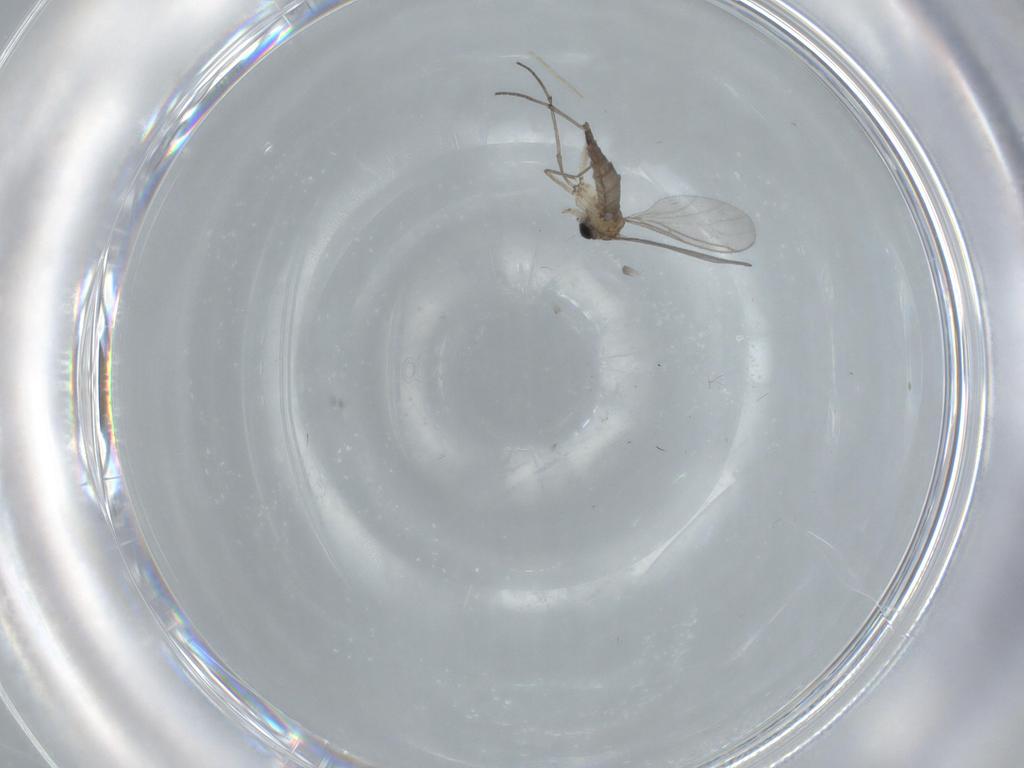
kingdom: Animalia
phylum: Arthropoda
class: Insecta
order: Diptera
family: Sciaridae
